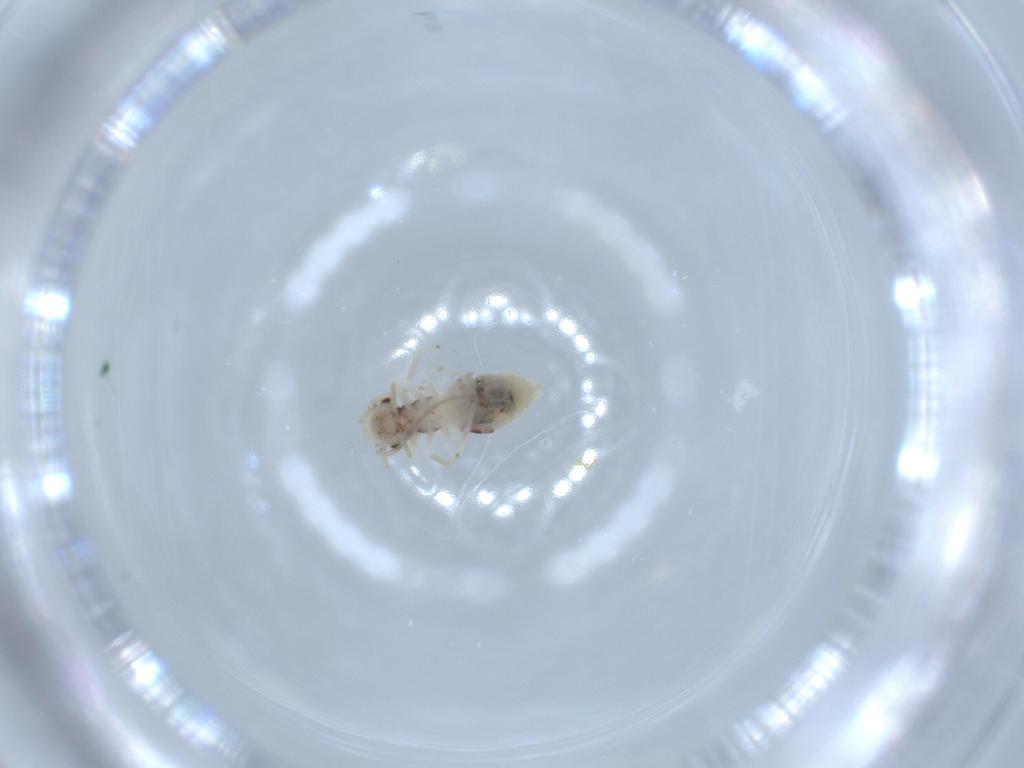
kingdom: Animalia
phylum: Arthropoda
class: Insecta
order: Psocodea
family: Caeciliusidae
